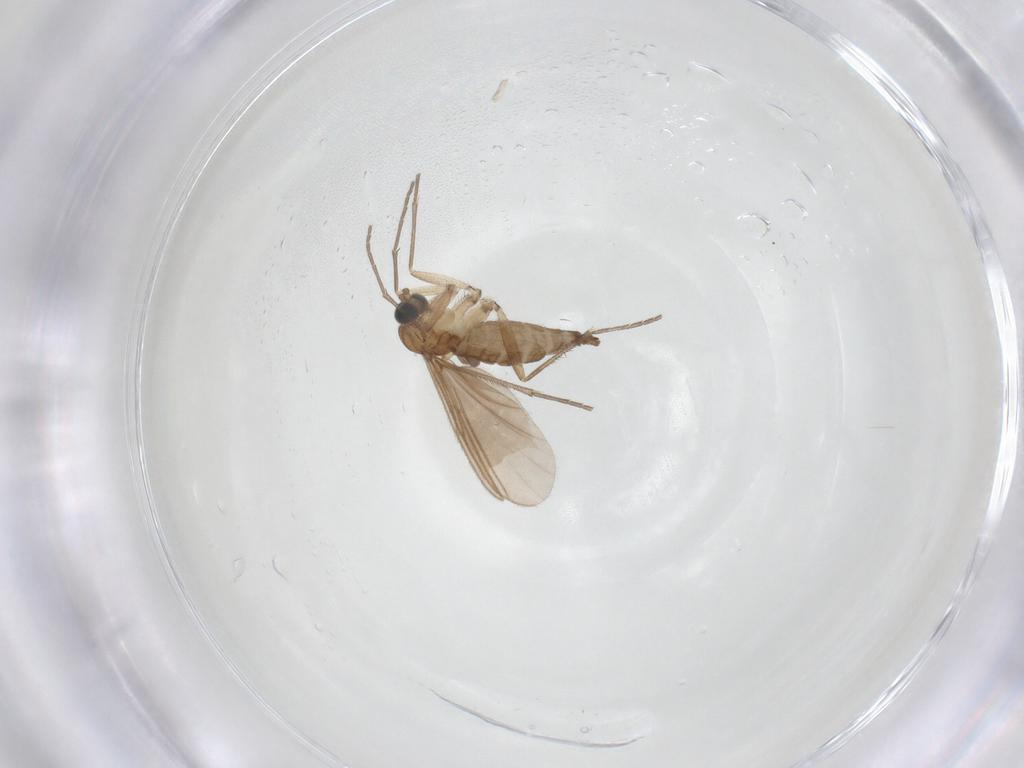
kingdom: Animalia
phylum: Arthropoda
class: Insecta
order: Diptera
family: Sciaridae
